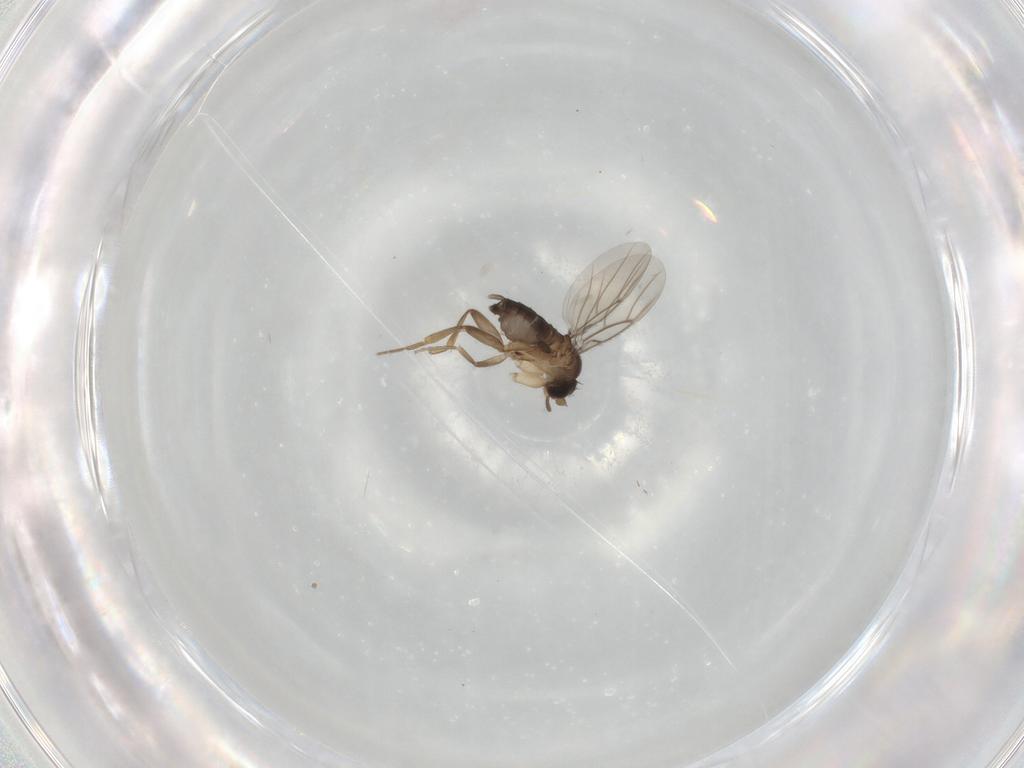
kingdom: Animalia
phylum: Arthropoda
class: Insecta
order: Diptera
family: Phoridae
